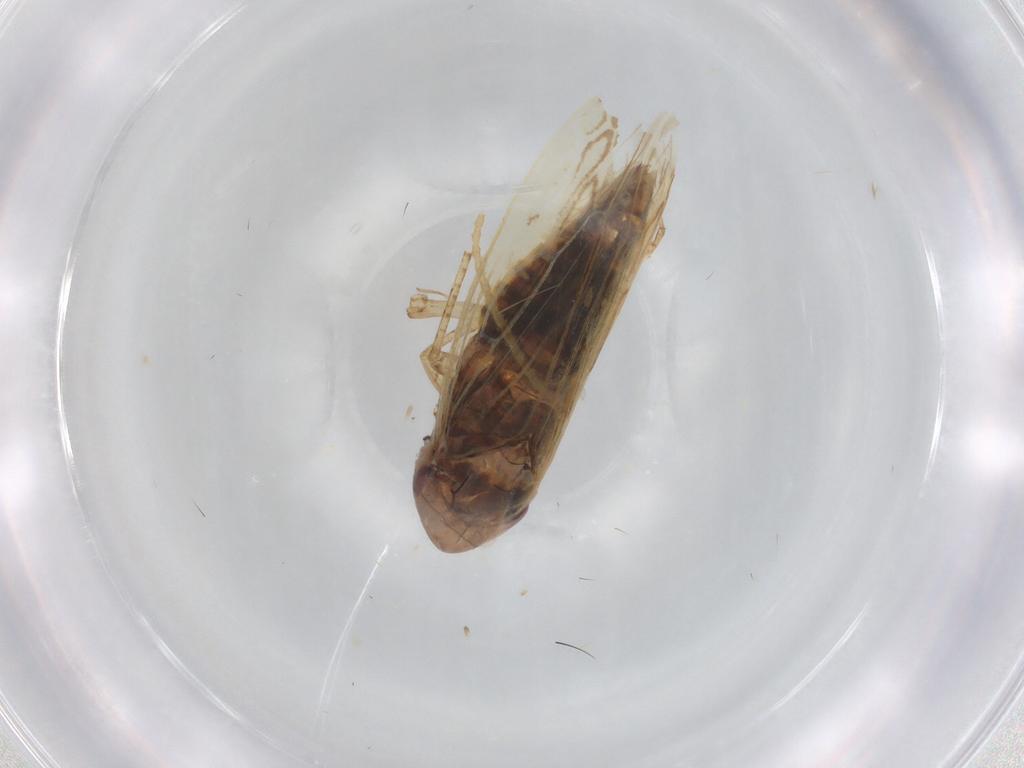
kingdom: Animalia
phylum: Arthropoda
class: Insecta
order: Hemiptera
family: Cicadellidae
